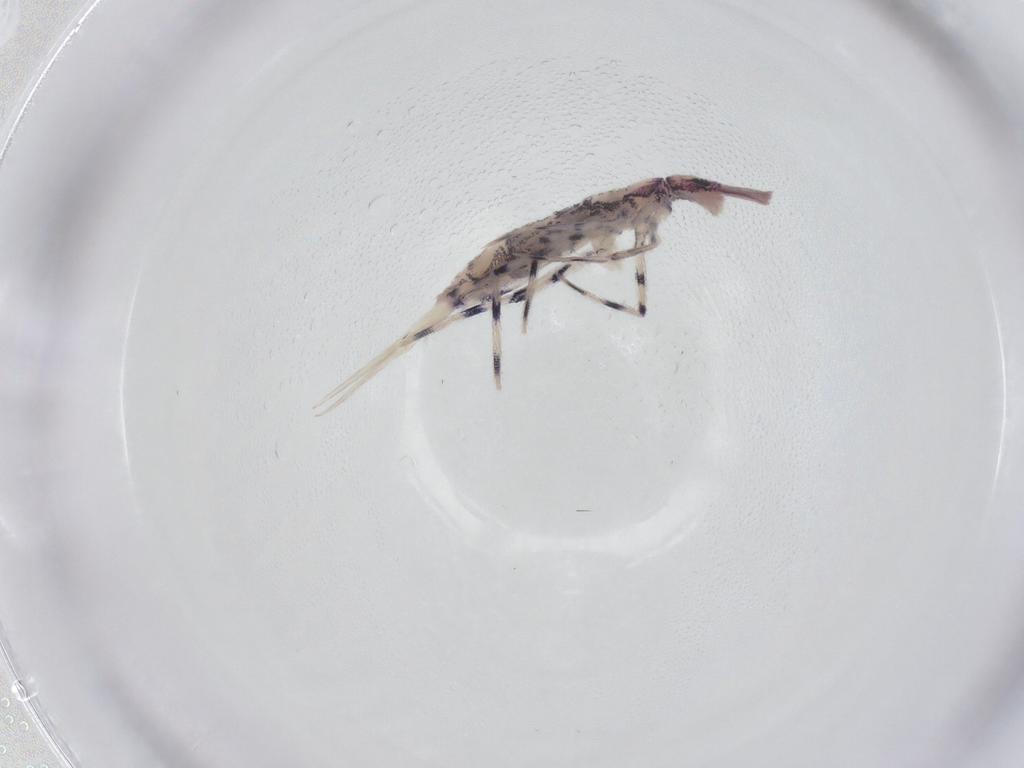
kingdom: Animalia
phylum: Arthropoda
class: Collembola
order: Entomobryomorpha
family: Entomobryidae
